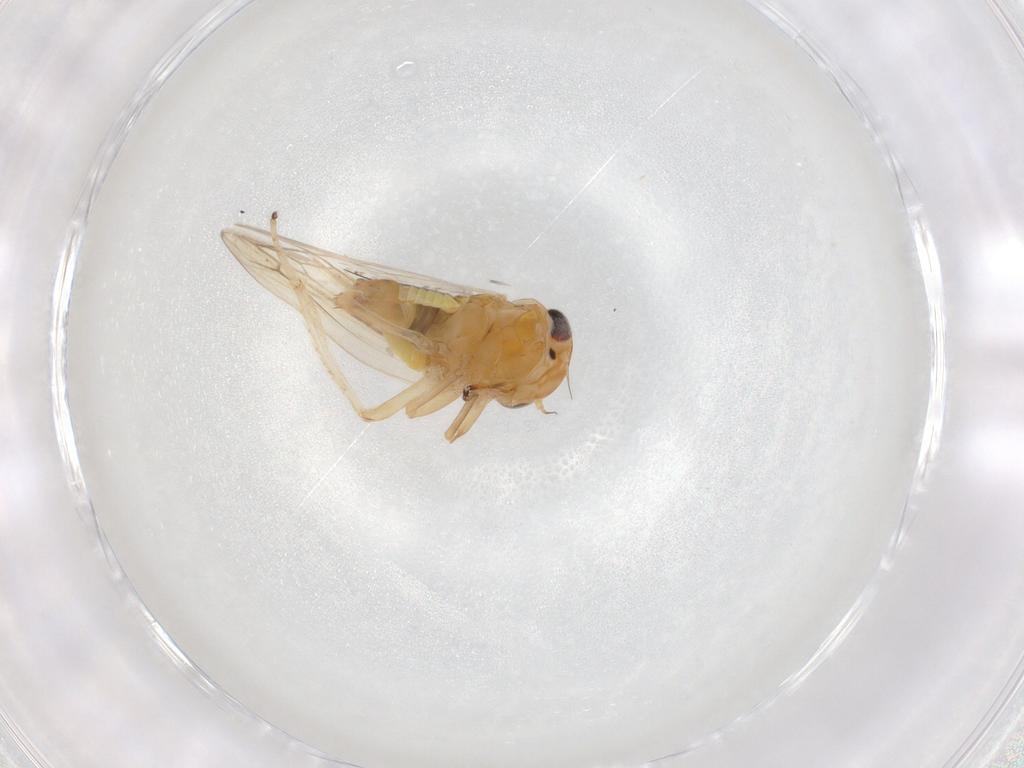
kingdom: Animalia
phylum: Arthropoda
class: Insecta
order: Hemiptera
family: Cicadellidae
